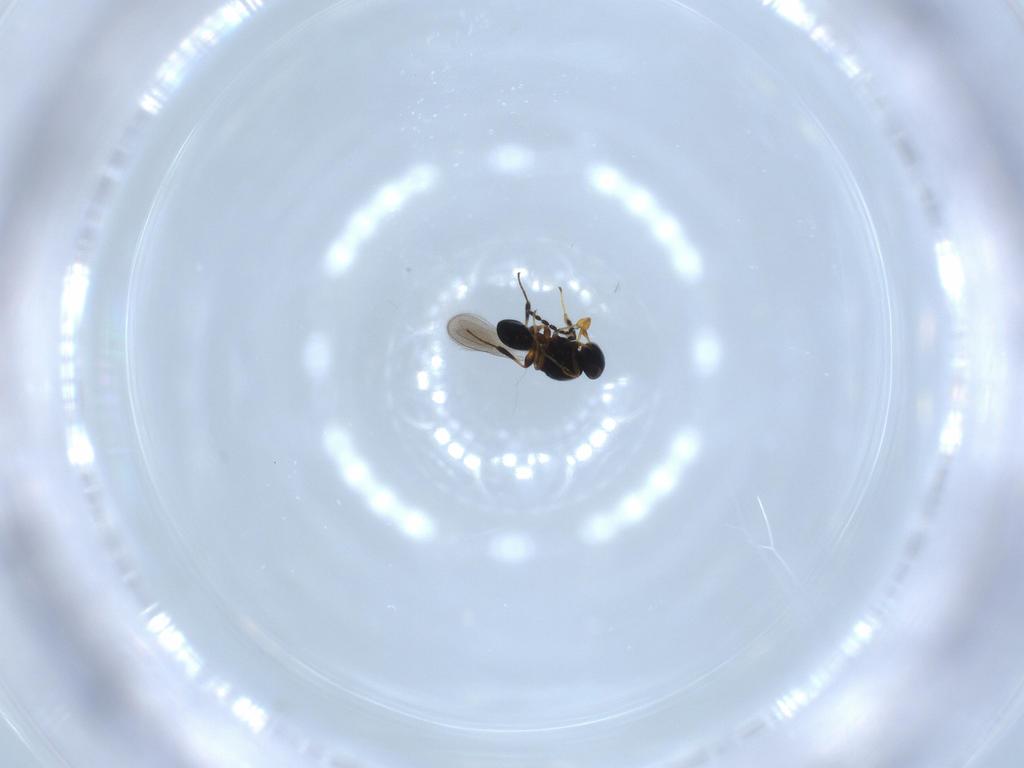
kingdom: Animalia
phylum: Arthropoda
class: Insecta
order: Hymenoptera
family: Platygastridae
